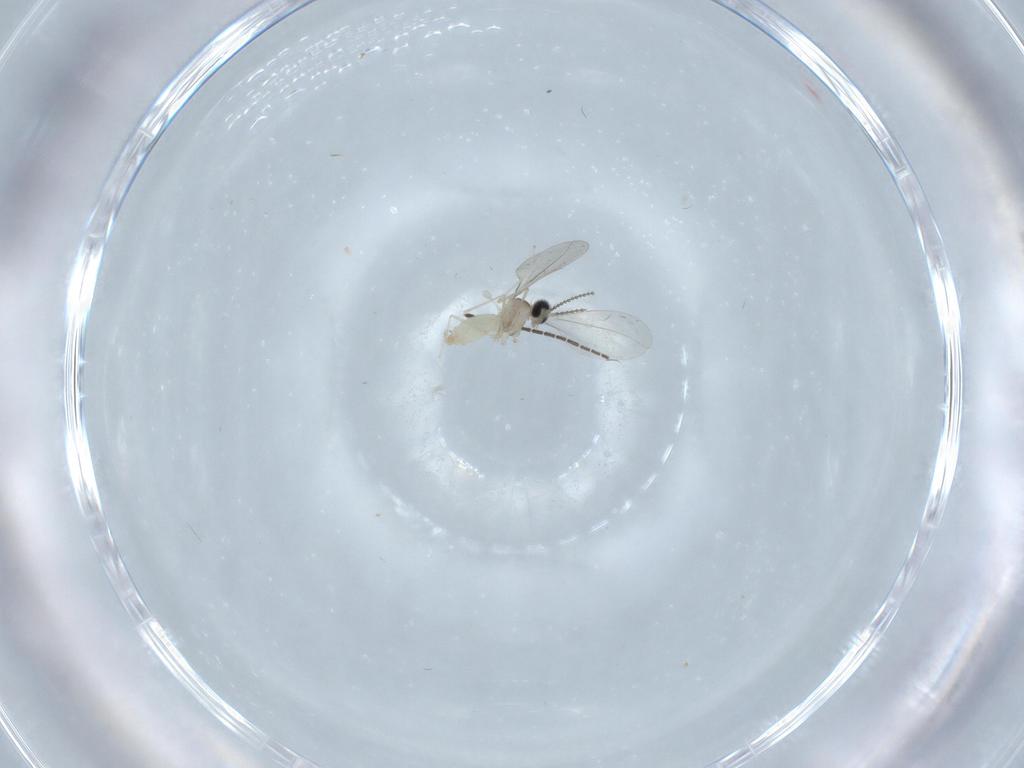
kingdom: Animalia
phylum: Arthropoda
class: Insecta
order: Diptera
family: Cecidomyiidae
